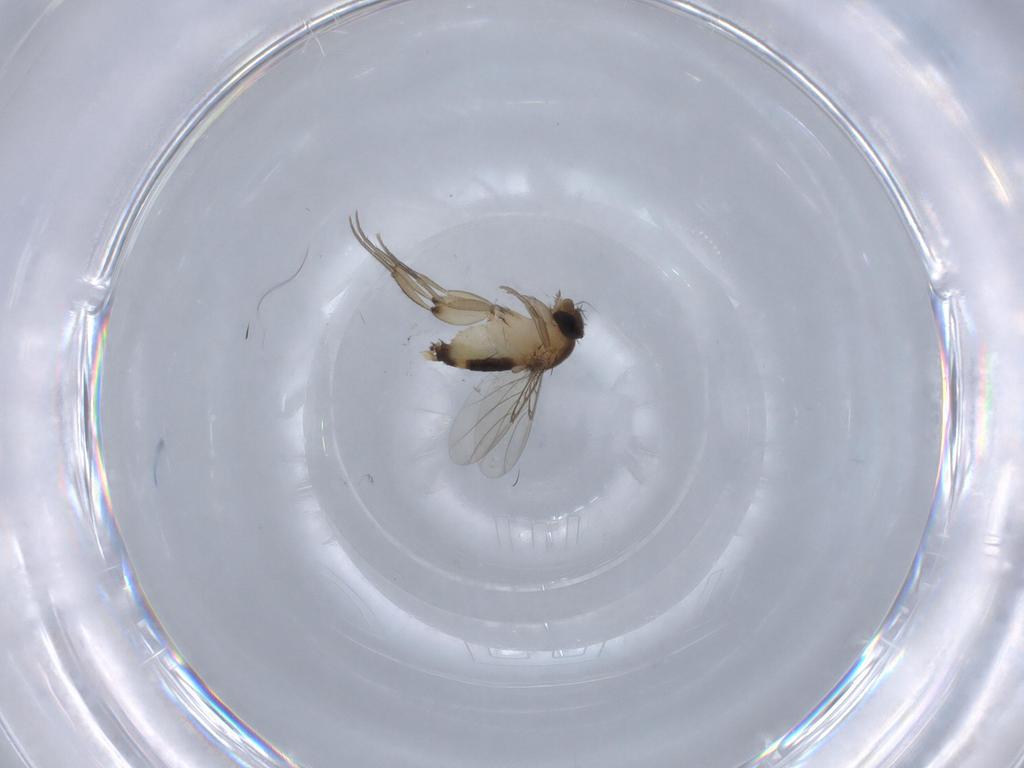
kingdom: Animalia
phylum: Arthropoda
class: Insecta
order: Diptera
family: Phoridae
